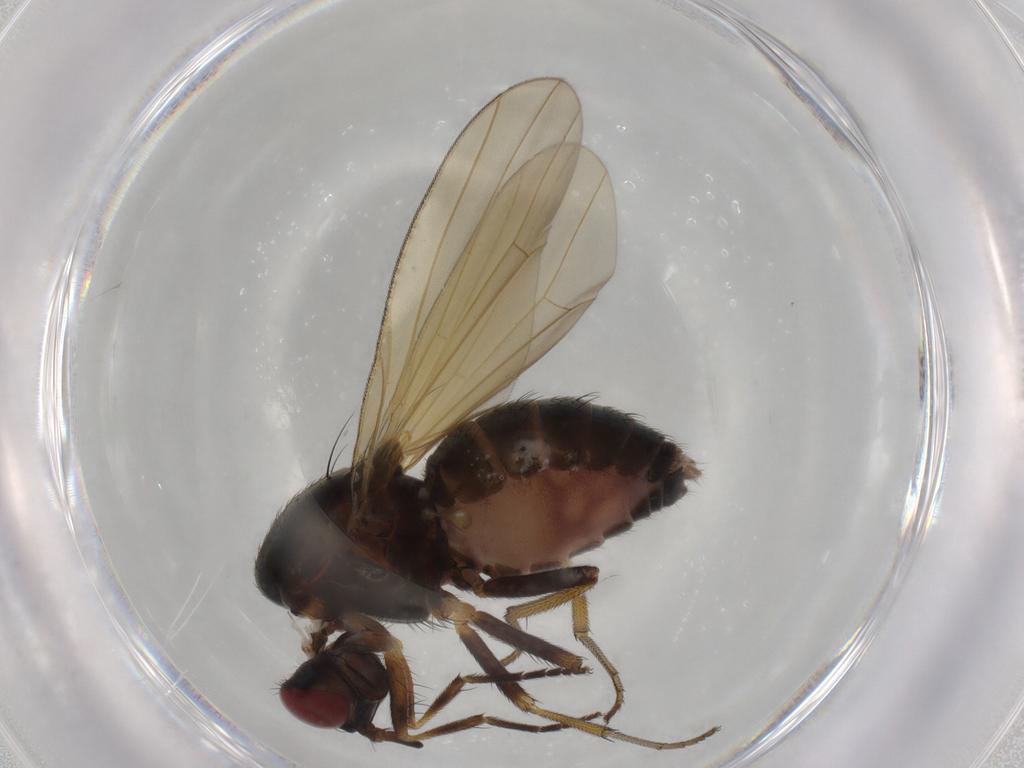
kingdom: Animalia
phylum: Arthropoda
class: Insecta
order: Diptera
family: Lauxaniidae
